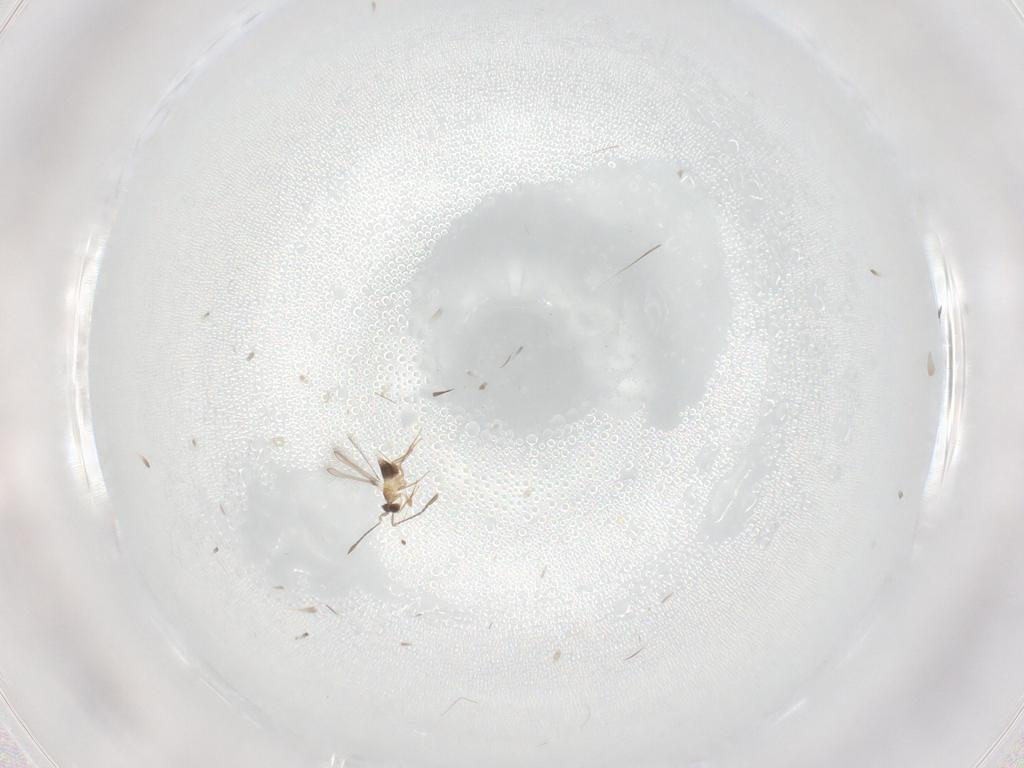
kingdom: Animalia
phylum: Arthropoda
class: Insecta
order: Hymenoptera
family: Mymaridae
